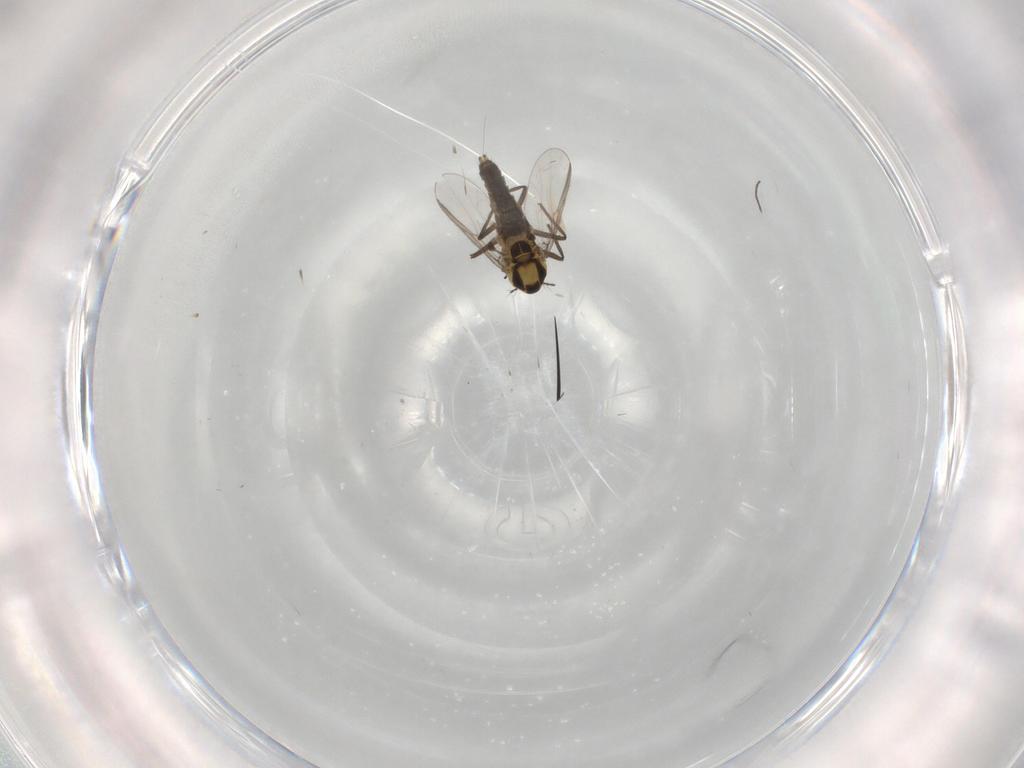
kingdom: Animalia
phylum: Arthropoda
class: Insecta
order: Diptera
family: Chironomidae
